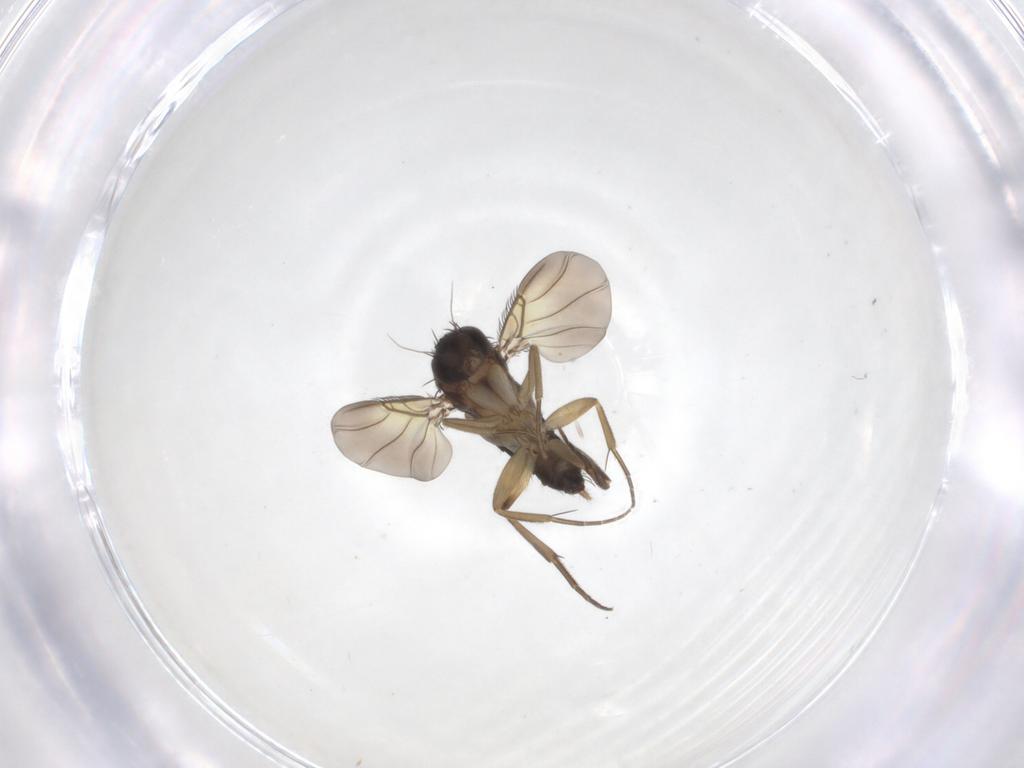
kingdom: Animalia
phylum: Arthropoda
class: Insecta
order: Diptera
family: Phoridae
